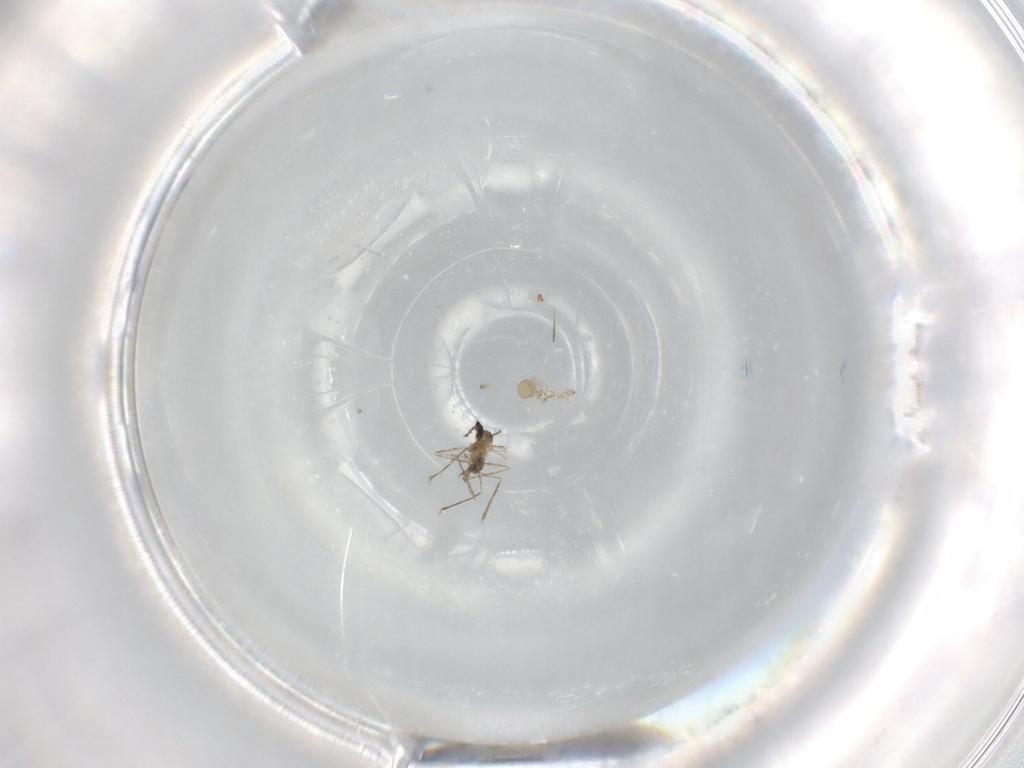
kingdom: Animalia
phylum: Arthropoda
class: Insecta
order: Diptera
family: Cecidomyiidae
